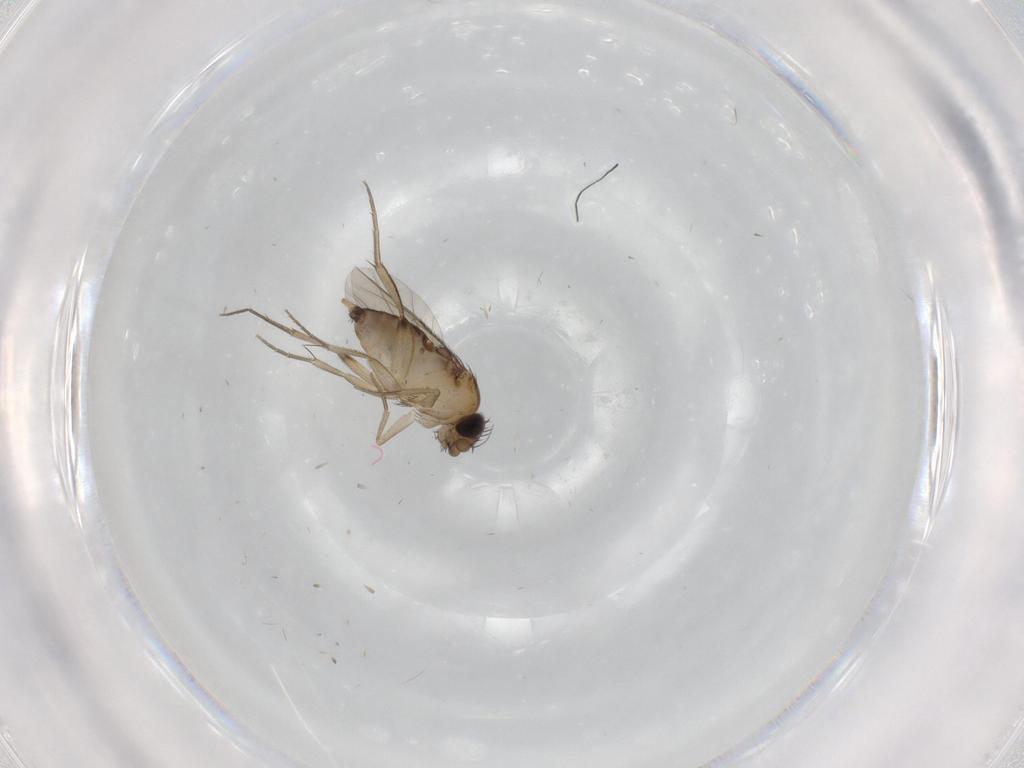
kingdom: Animalia
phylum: Arthropoda
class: Insecta
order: Diptera
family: Phoridae
